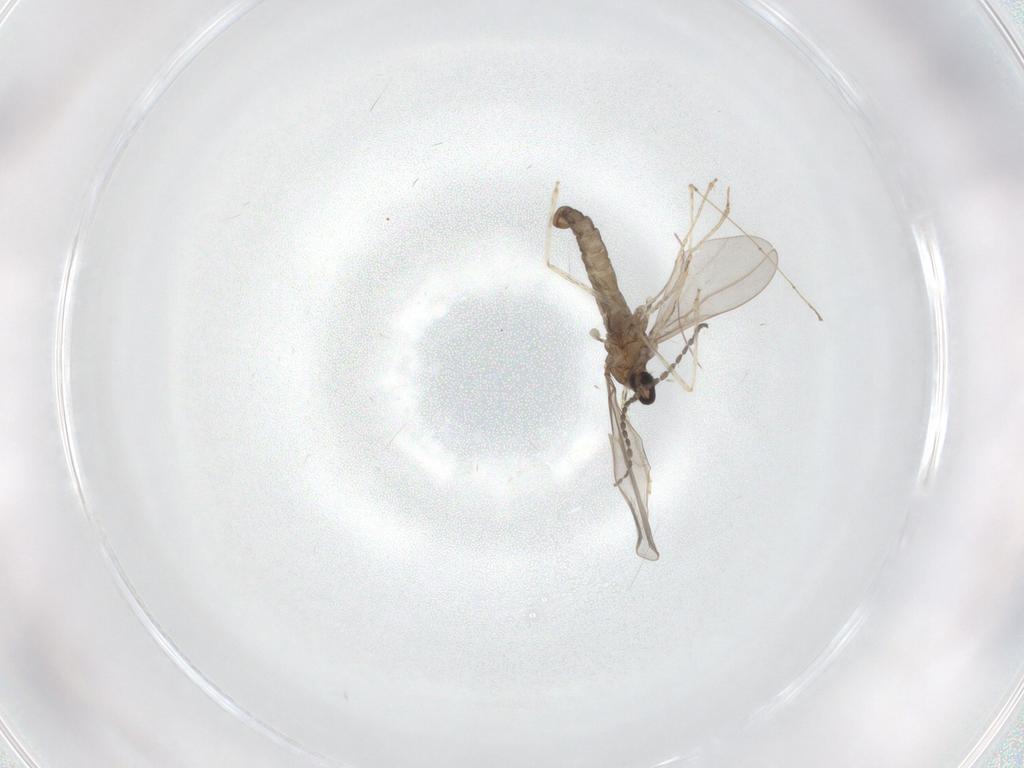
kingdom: Animalia
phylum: Arthropoda
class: Insecta
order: Diptera
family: Cecidomyiidae
